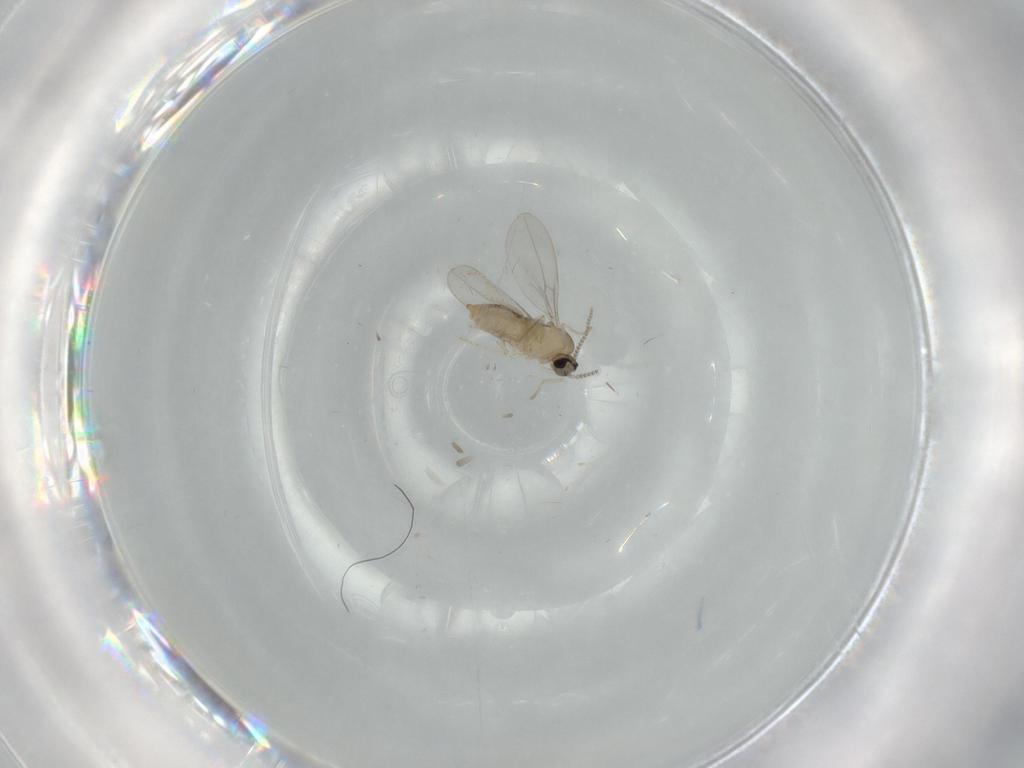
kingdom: Animalia
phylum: Arthropoda
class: Insecta
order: Diptera
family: Cecidomyiidae
